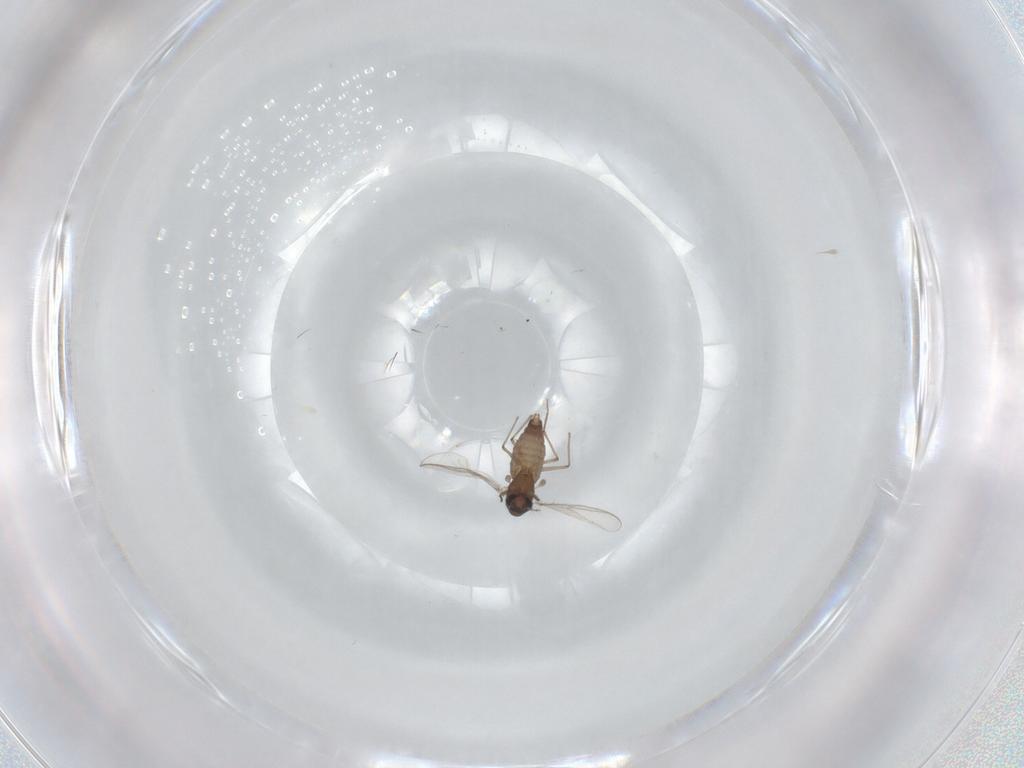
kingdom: Animalia
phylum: Arthropoda
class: Insecta
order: Diptera
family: Chironomidae
